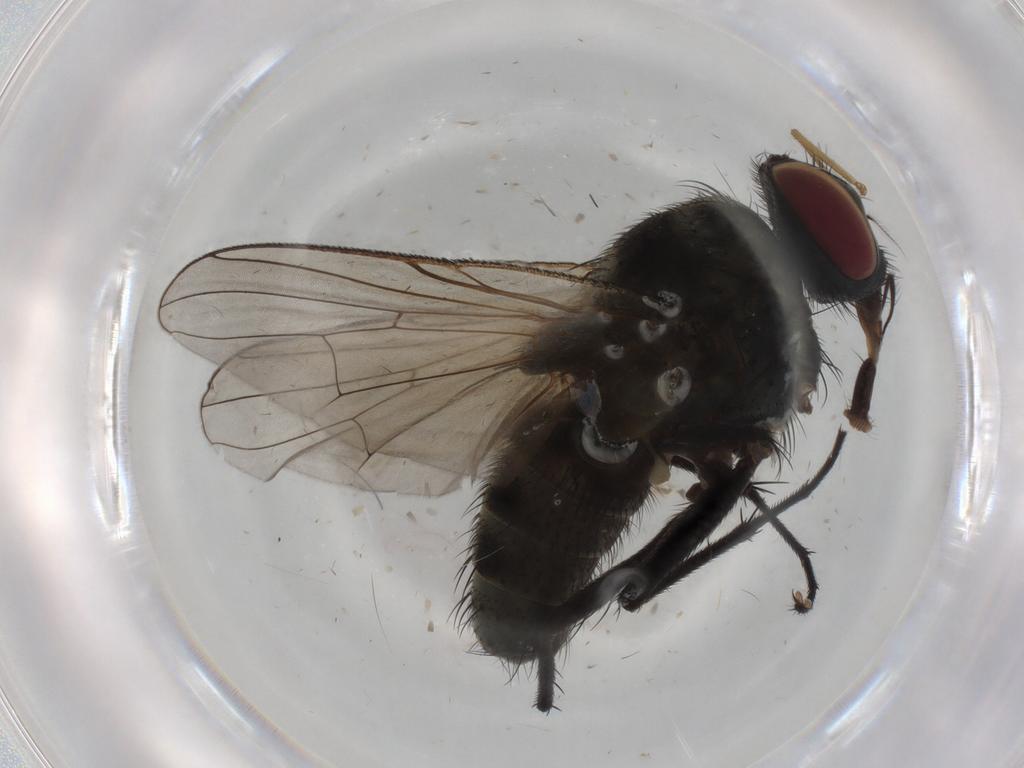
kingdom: Animalia
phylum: Arthropoda
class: Insecta
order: Diptera
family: Muscidae
